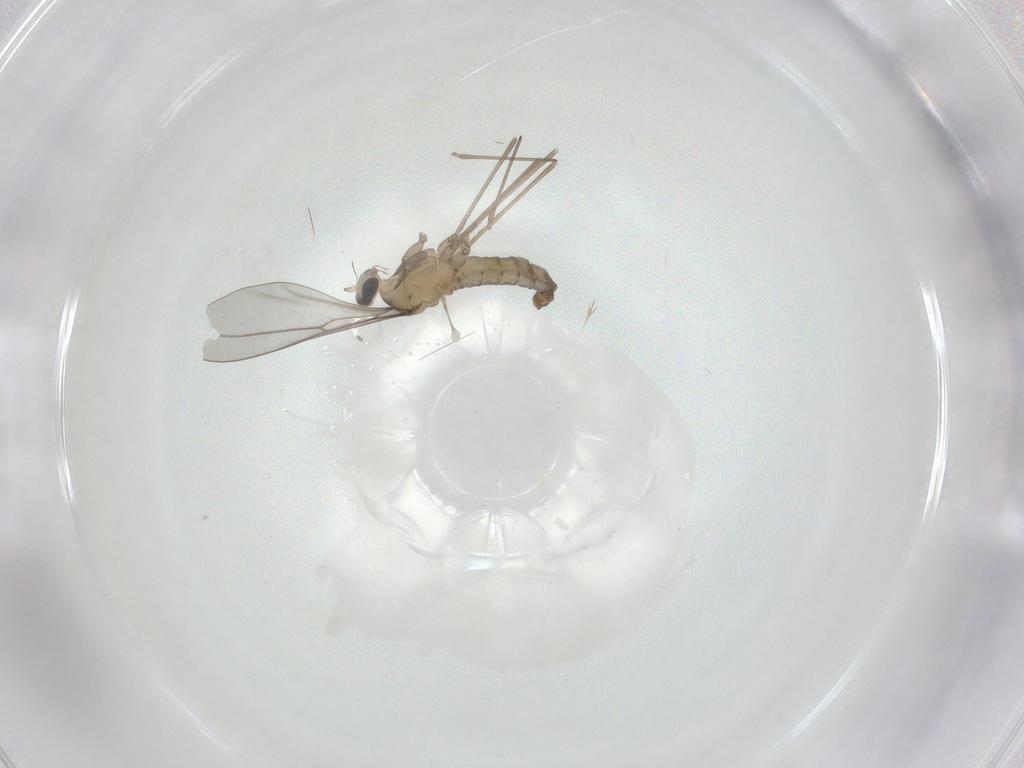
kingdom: Animalia
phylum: Arthropoda
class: Insecta
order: Diptera
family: Cecidomyiidae
